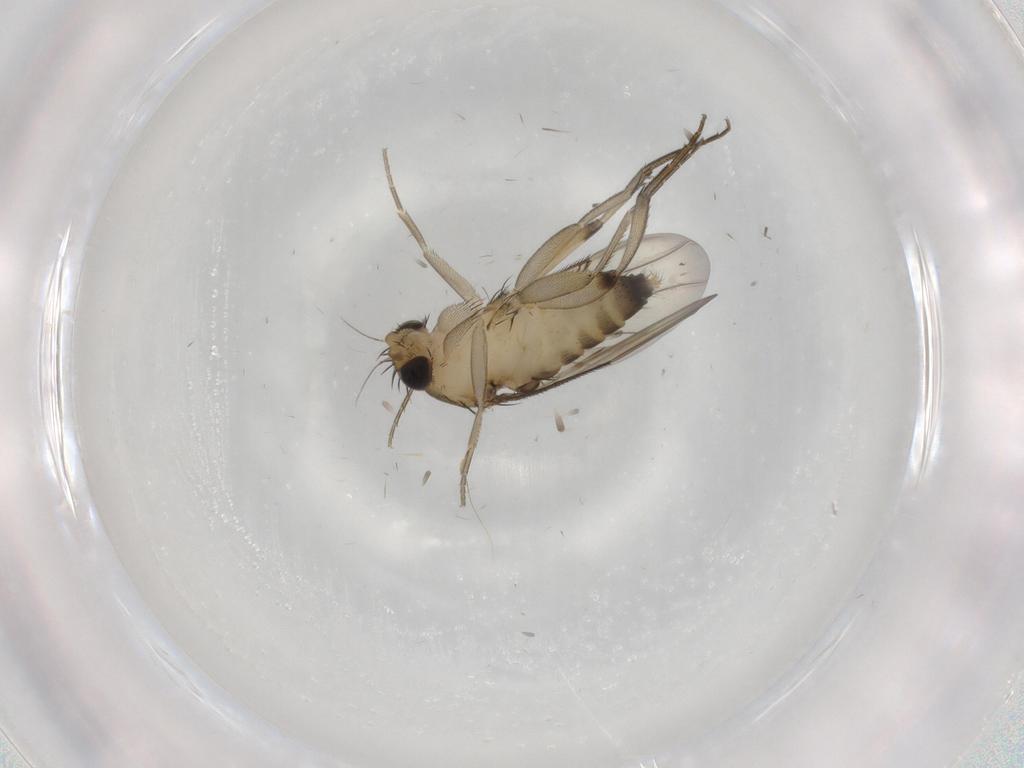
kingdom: Animalia
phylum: Arthropoda
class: Insecta
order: Diptera
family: Phoridae
